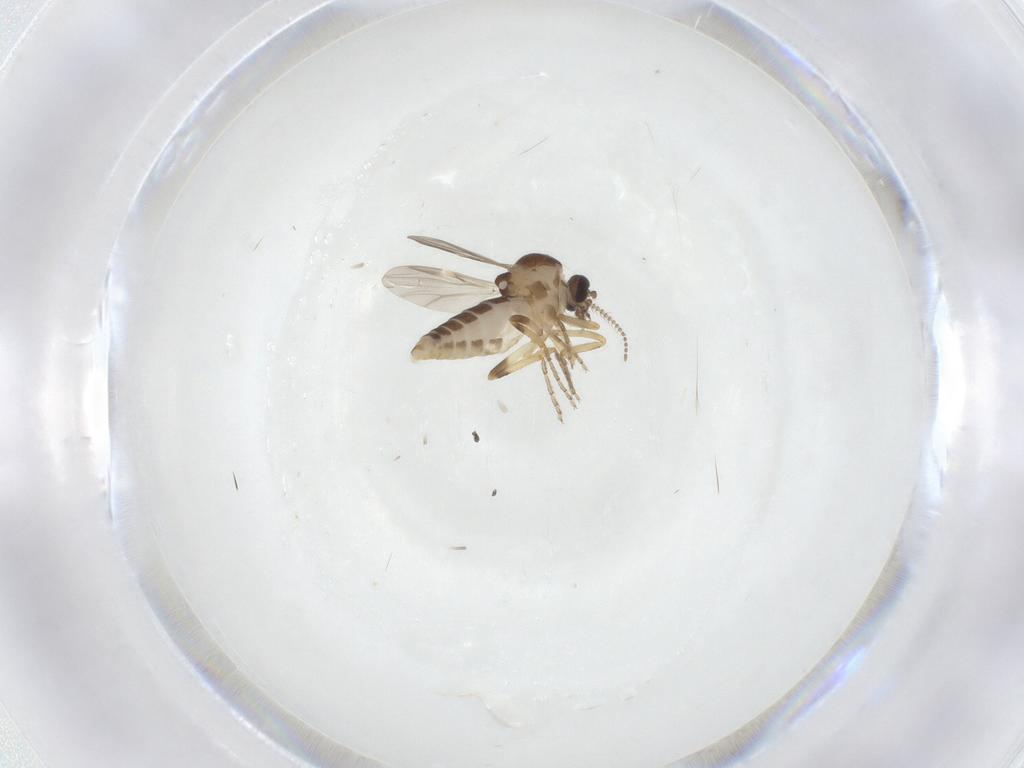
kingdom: Animalia
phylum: Arthropoda
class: Insecta
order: Diptera
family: Ceratopogonidae
